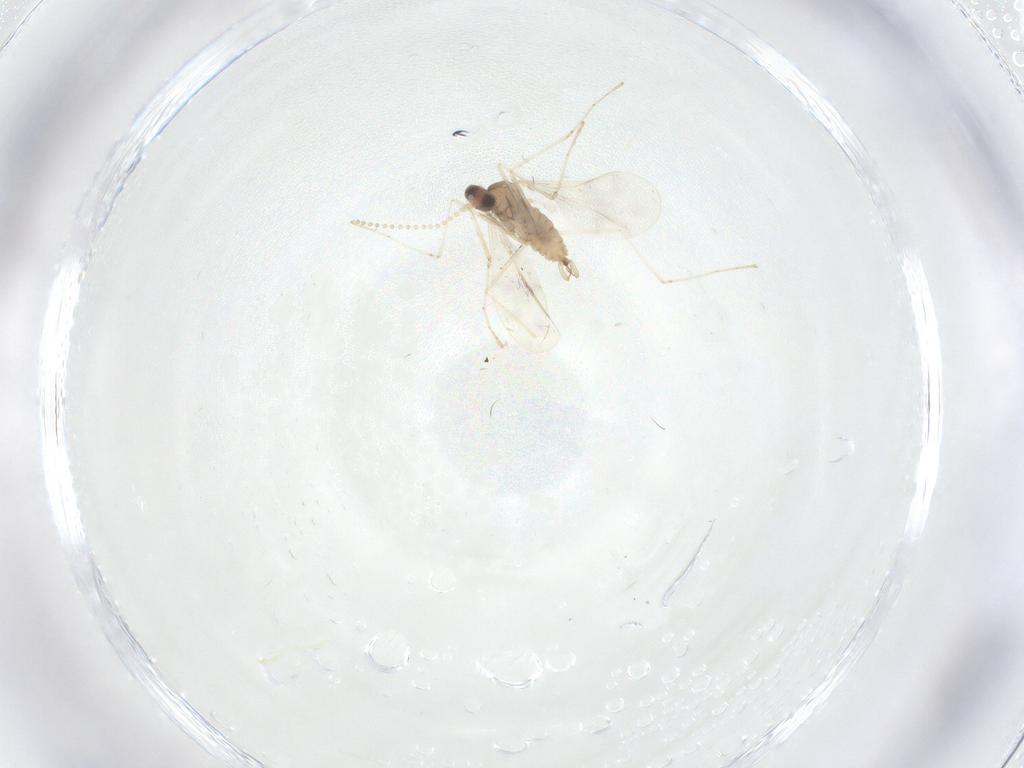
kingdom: Animalia
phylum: Arthropoda
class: Insecta
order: Diptera
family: Cecidomyiidae
